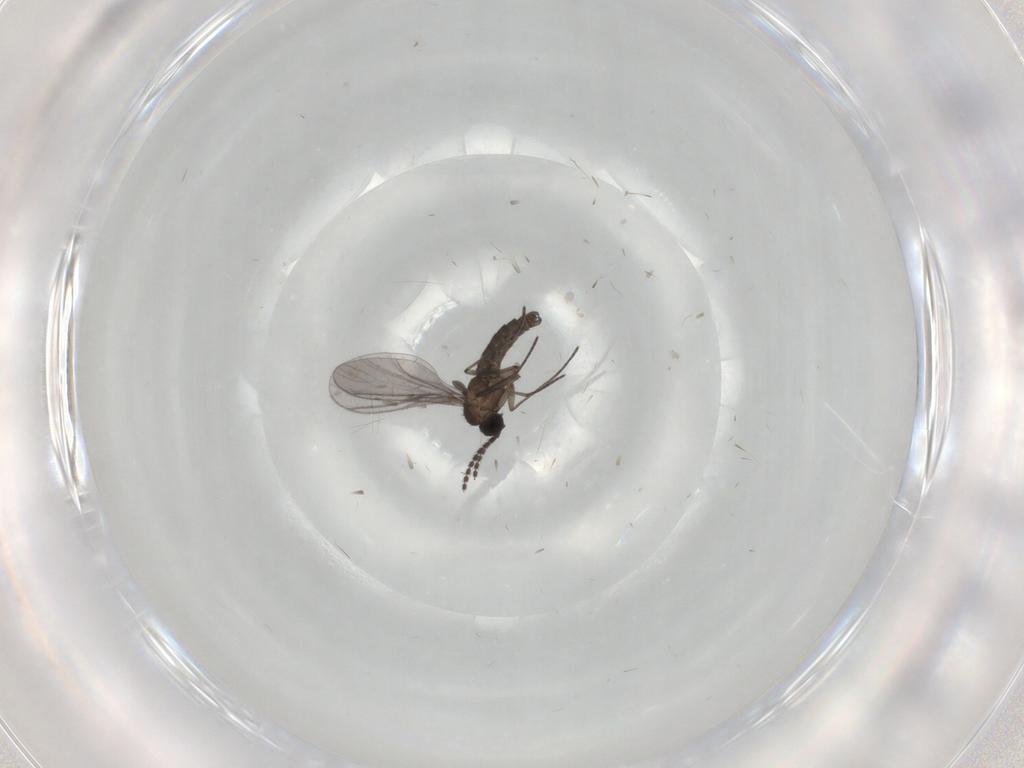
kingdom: Animalia
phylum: Arthropoda
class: Insecta
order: Diptera
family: Sciaridae
